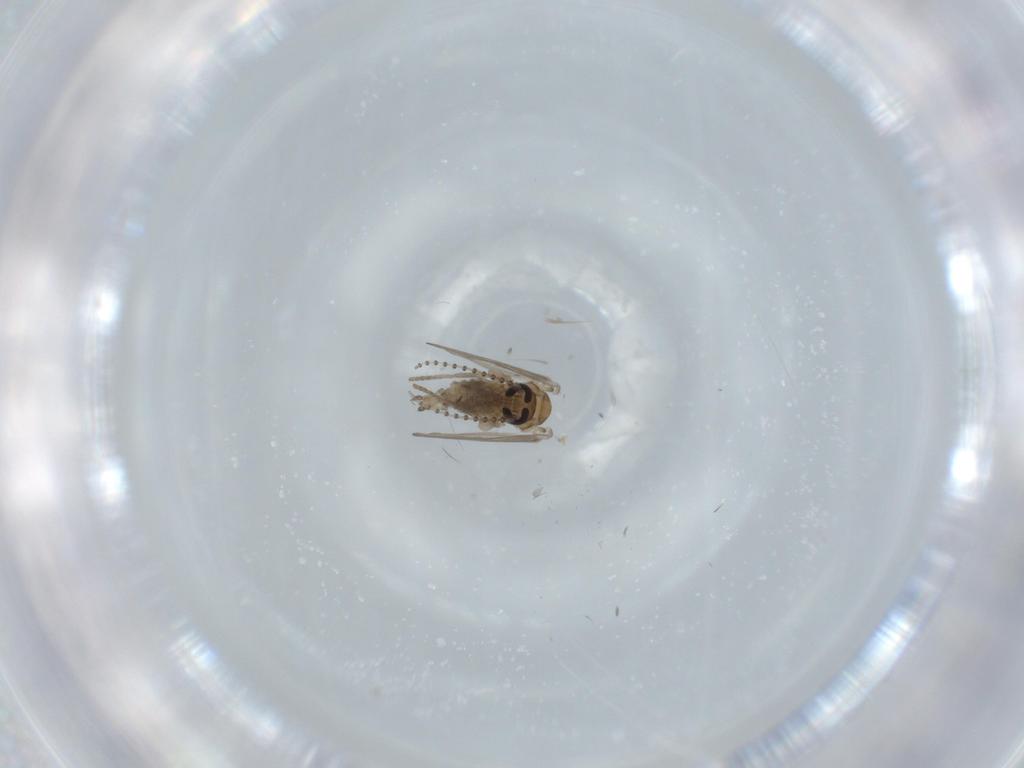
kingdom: Animalia
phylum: Arthropoda
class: Insecta
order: Diptera
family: Psychodidae
